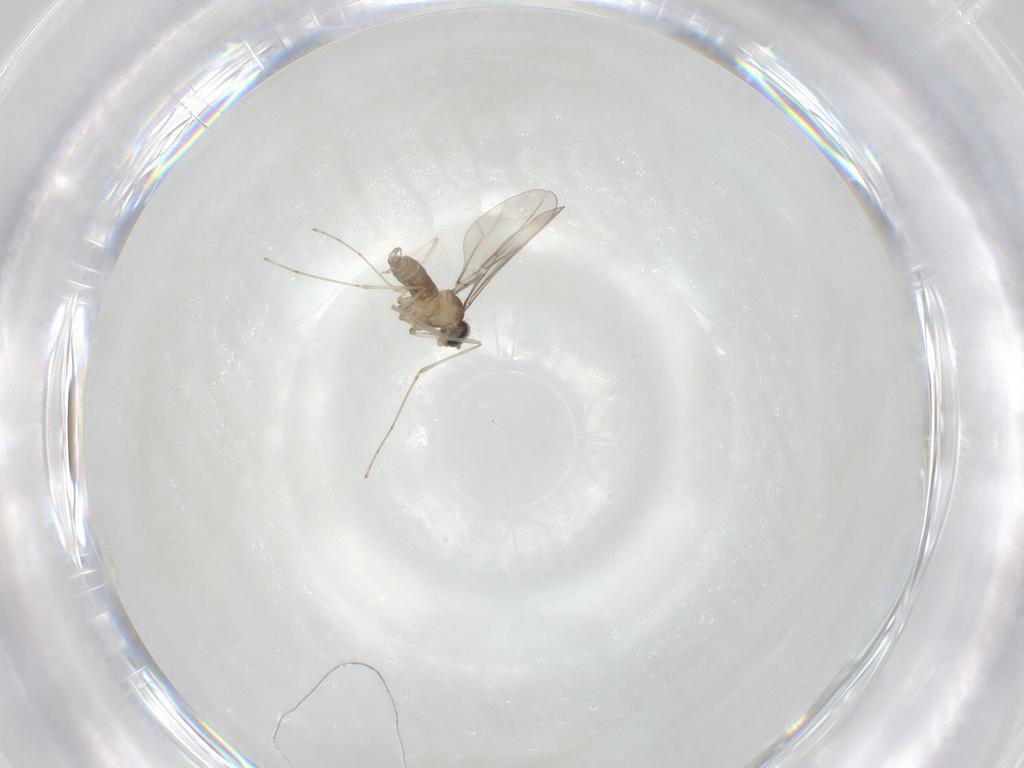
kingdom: Animalia
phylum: Arthropoda
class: Insecta
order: Diptera
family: Cecidomyiidae
